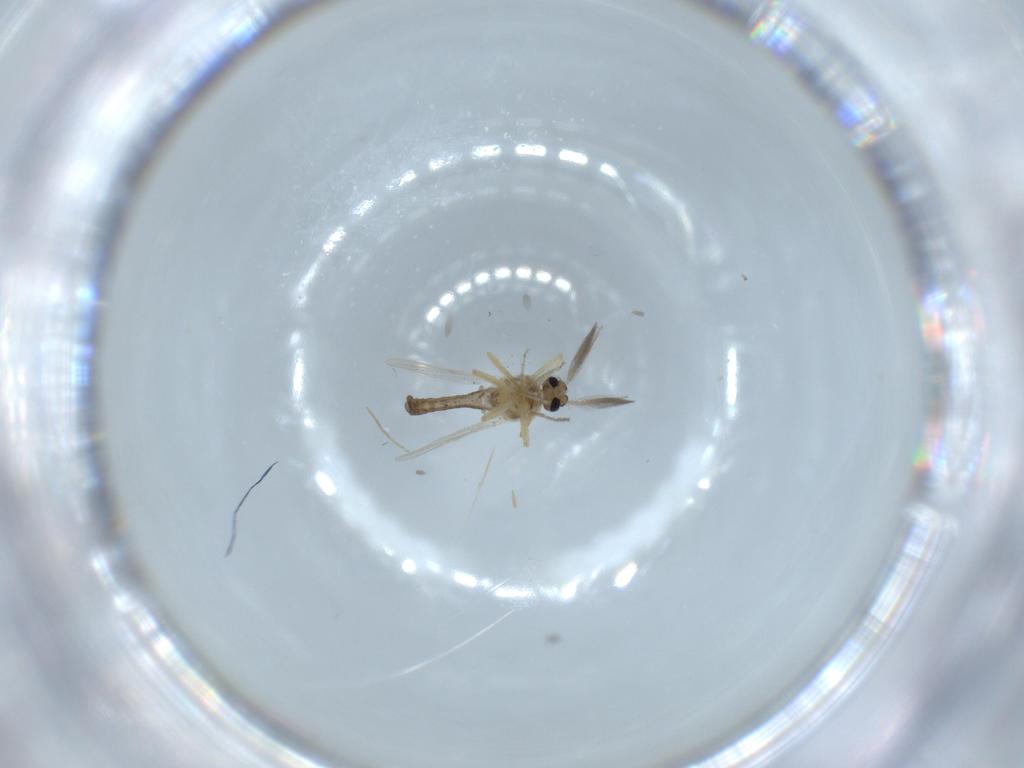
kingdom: Animalia
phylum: Arthropoda
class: Insecta
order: Diptera
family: Ceratopogonidae
